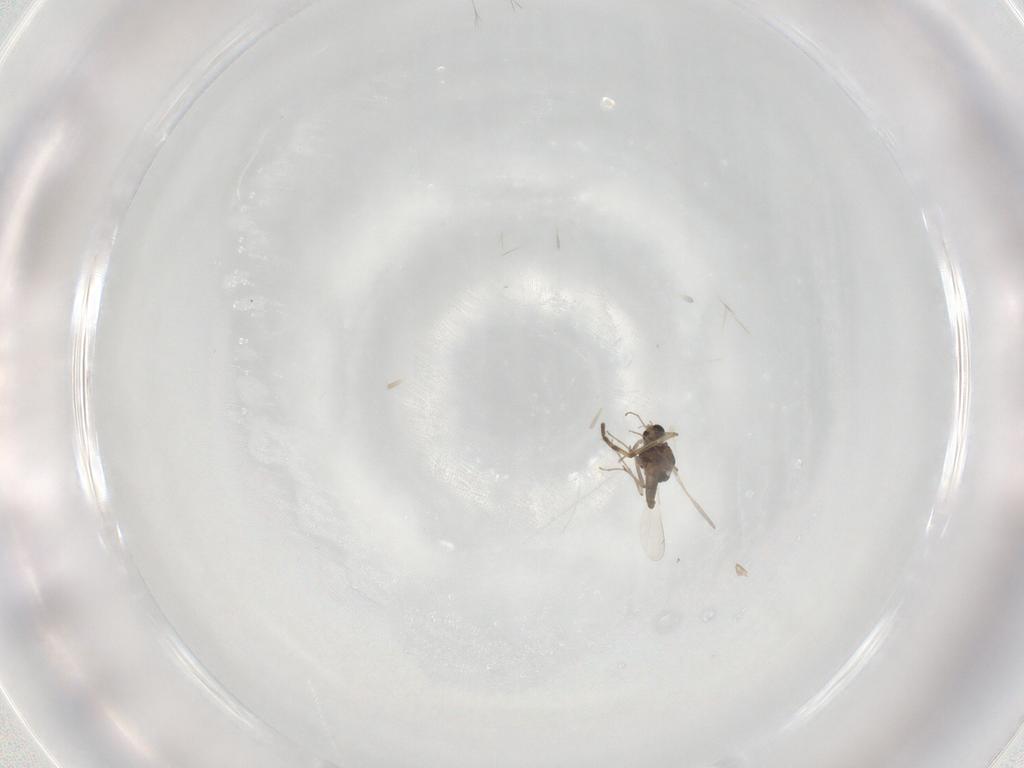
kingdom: Animalia
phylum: Arthropoda
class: Insecta
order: Diptera
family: Chironomidae
